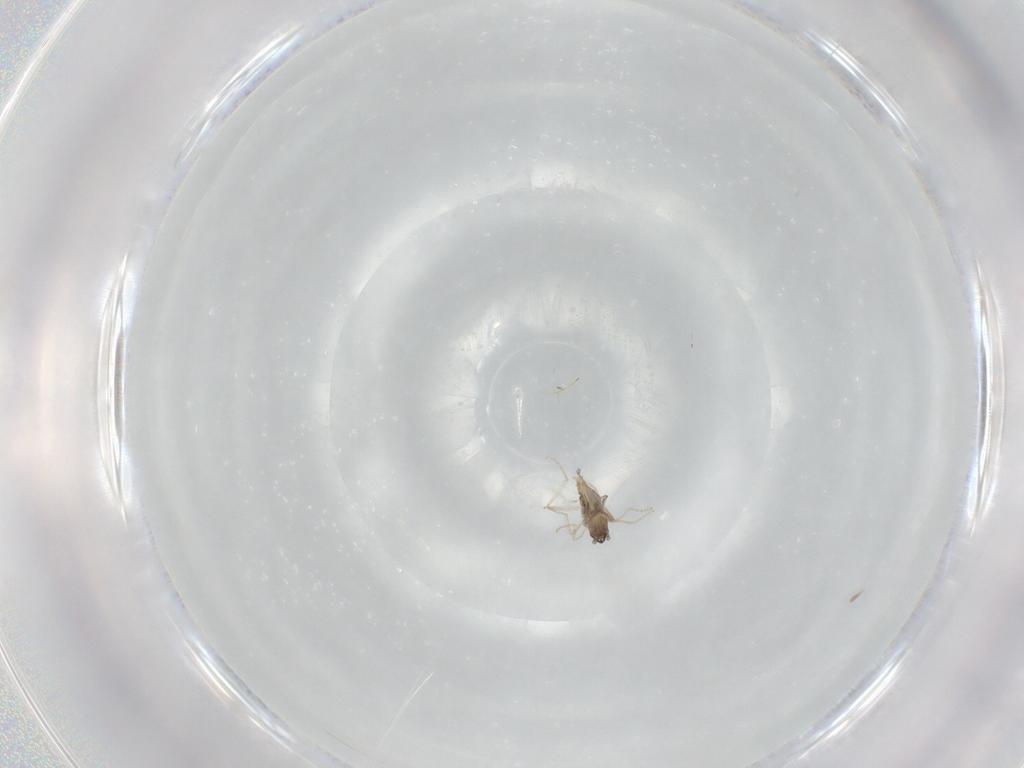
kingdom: Animalia
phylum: Arthropoda
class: Insecta
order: Diptera
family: Cecidomyiidae
